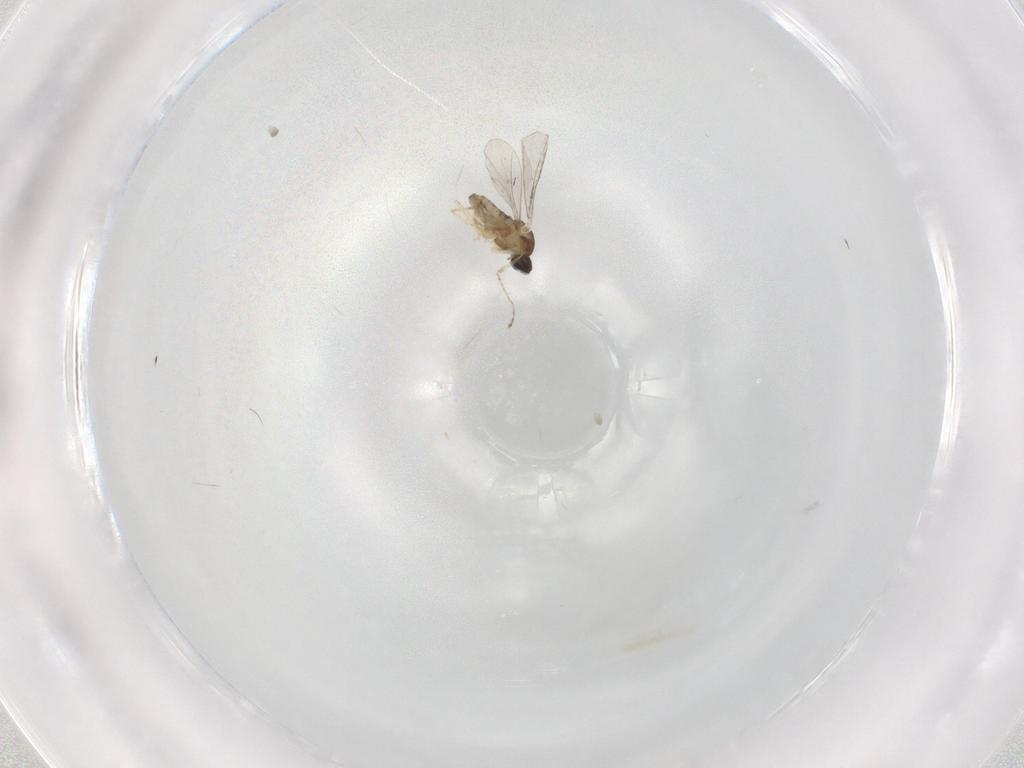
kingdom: Animalia
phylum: Arthropoda
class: Insecta
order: Diptera
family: Cecidomyiidae
